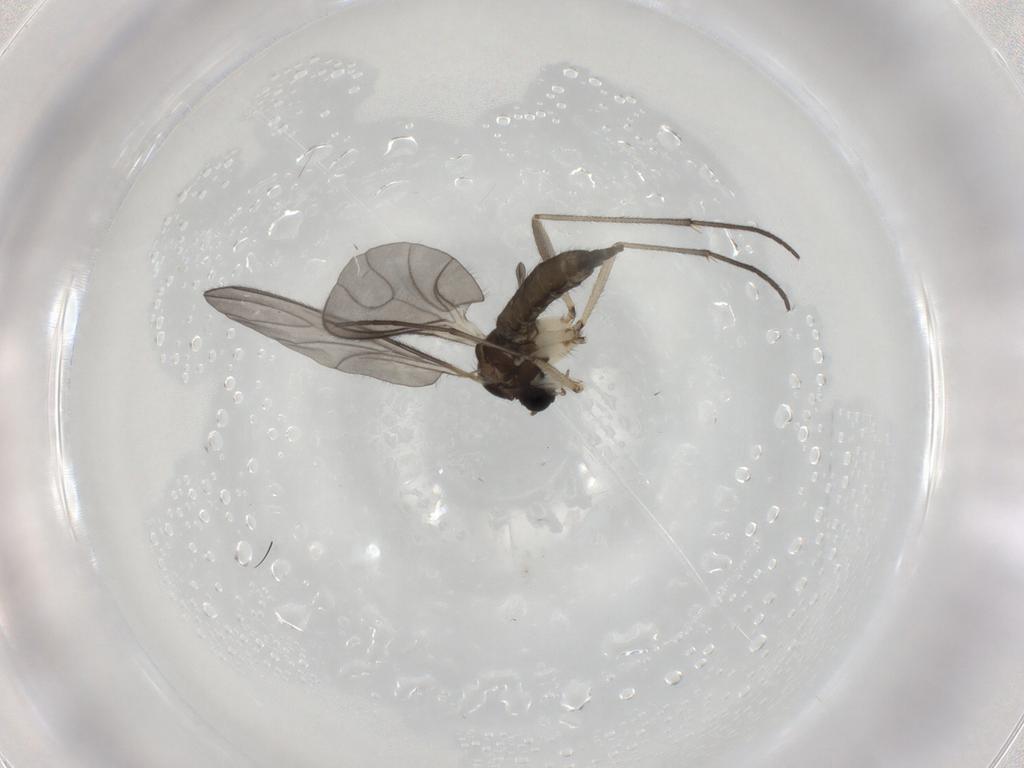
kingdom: Animalia
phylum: Arthropoda
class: Insecta
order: Diptera
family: Sciaridae
